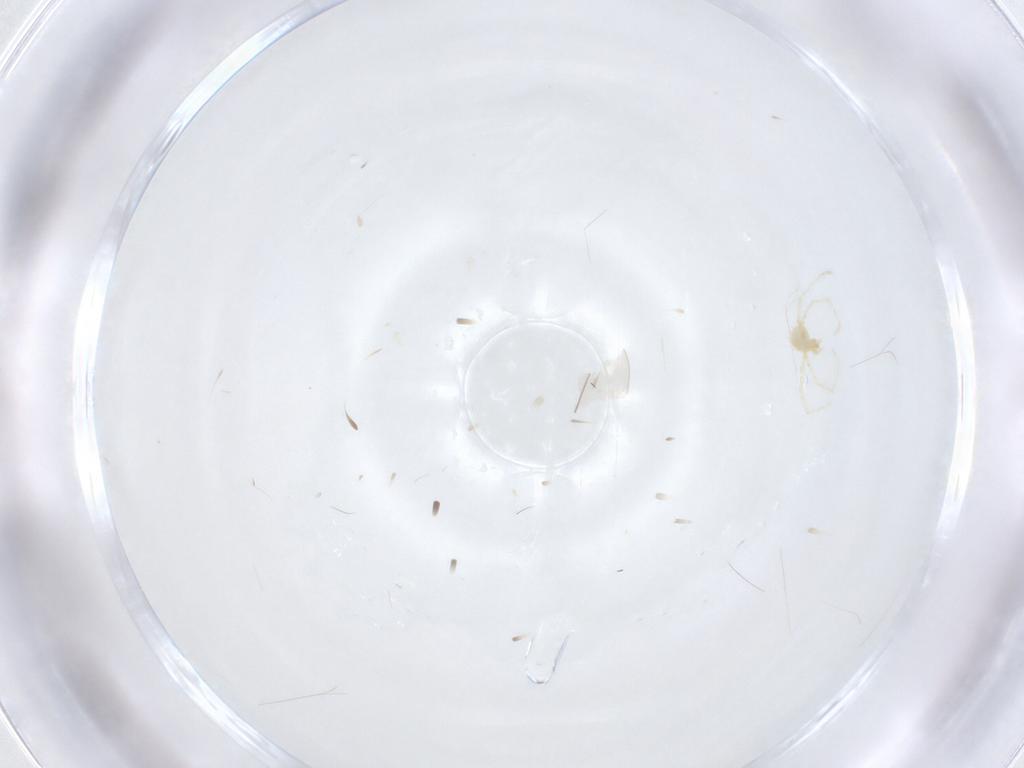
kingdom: Animalia
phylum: Arthropoda
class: Arachnida
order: Trombidiformes
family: Erythraeidae
